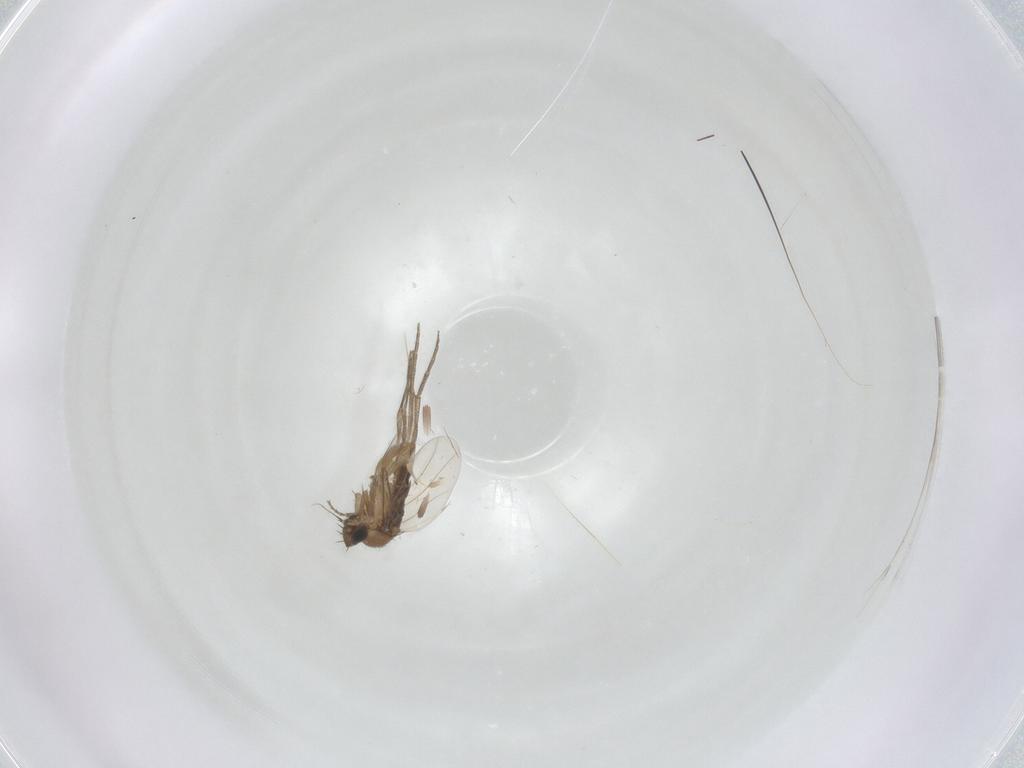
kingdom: Animalia
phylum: Arthropoda
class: Insecta
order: Diptera
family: Phoridae
